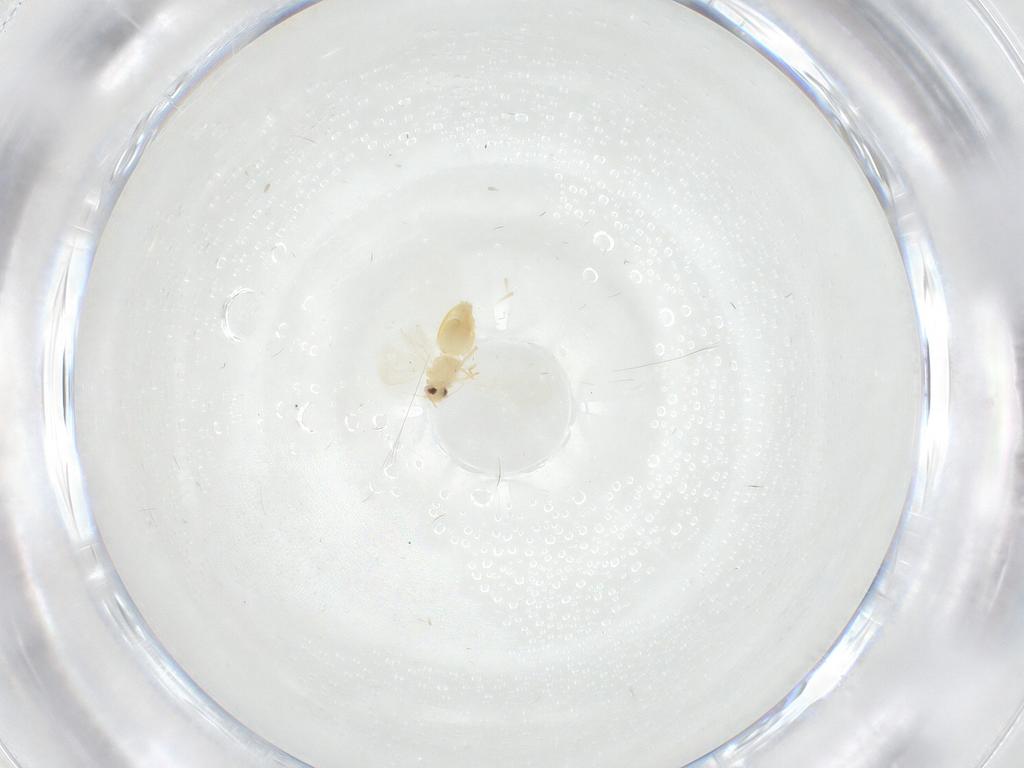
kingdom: Animalia
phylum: Arthropoda
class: Insecta
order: Hemiptera
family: Aleyrodidae
